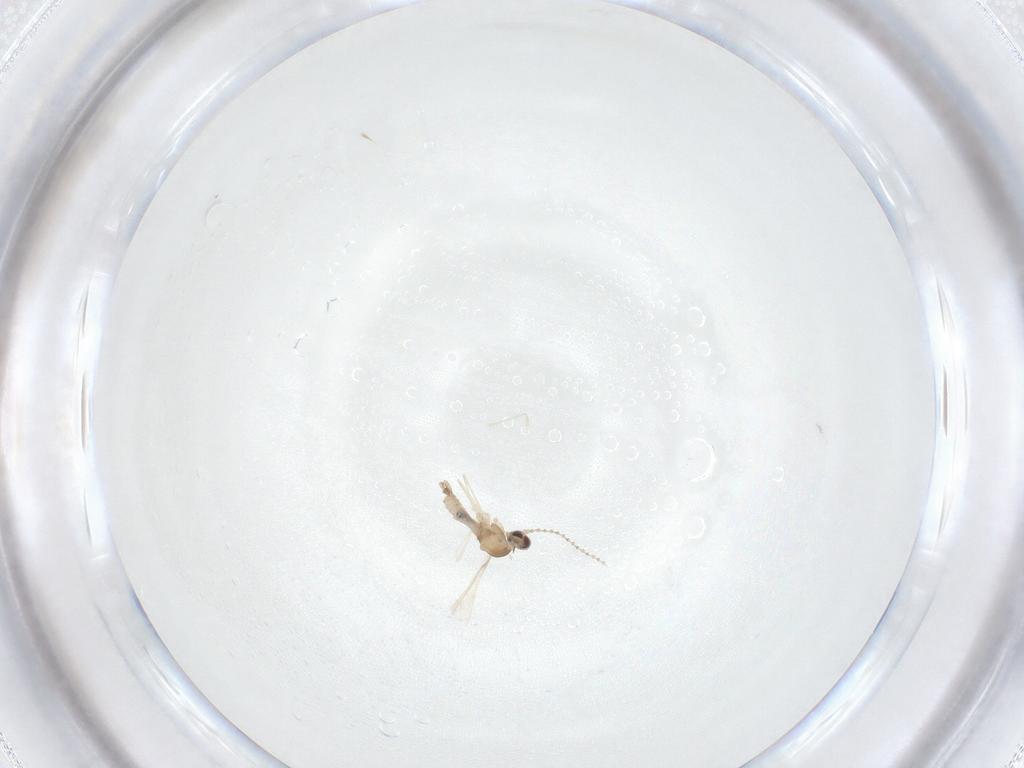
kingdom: Animalia
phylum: Arthropoda
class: Insecta
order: Diptera
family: Cecidomyiidae
